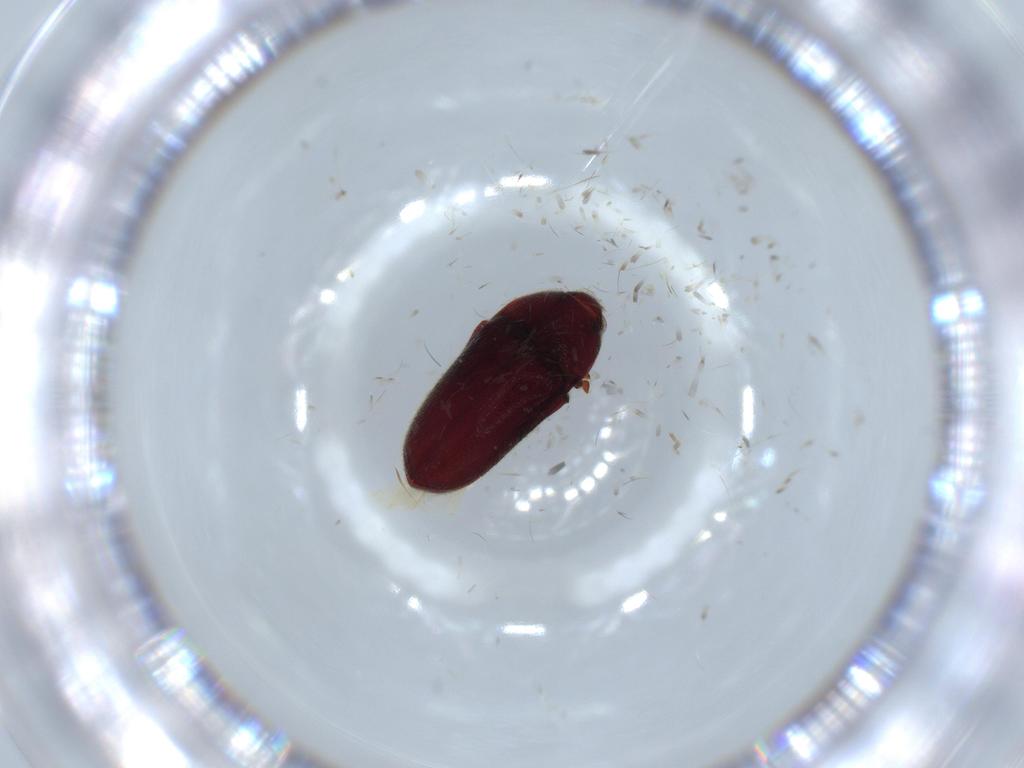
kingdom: Animalia
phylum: Arthropoda
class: Insecta
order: Coleoptera
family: Throscidae
